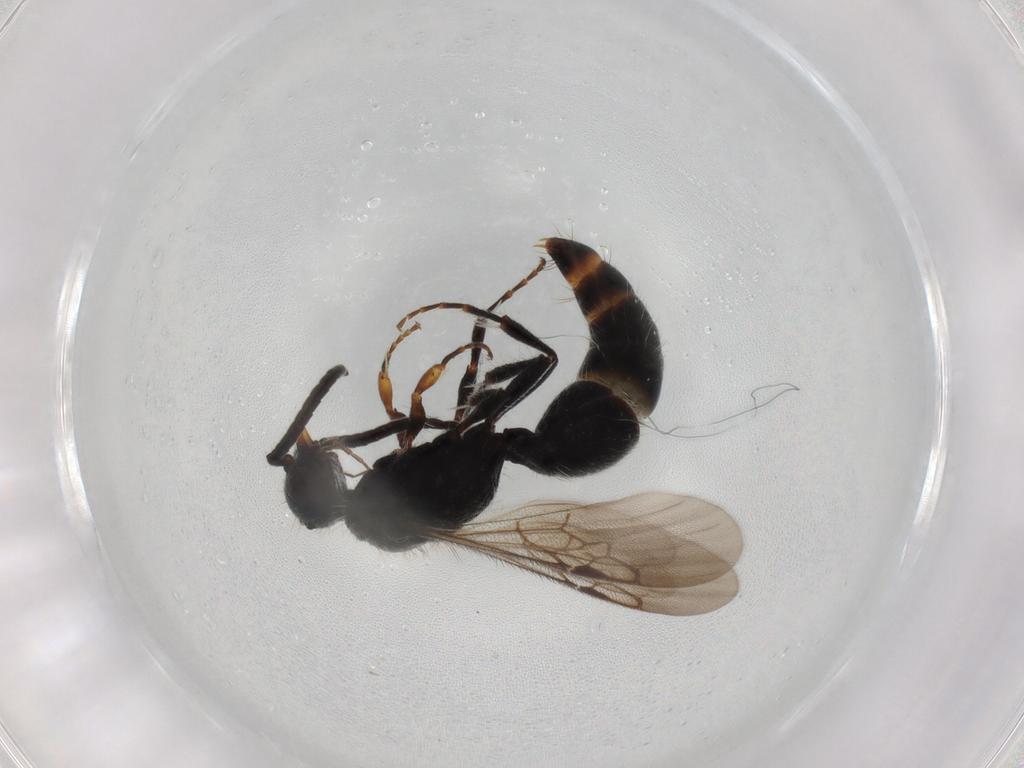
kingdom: Animalia
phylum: Arthropoda
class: Insecta
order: Hymenoptera
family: Mutillidae
